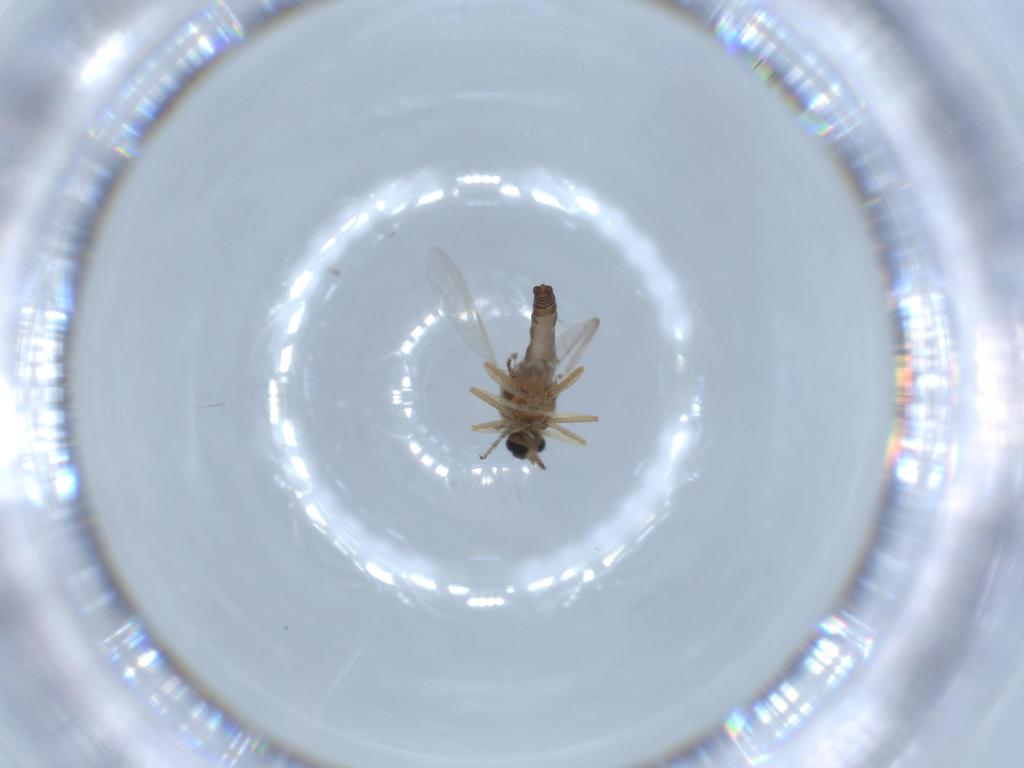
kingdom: Animalia
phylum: Arthropoda
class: Insecta
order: Diptera
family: Ceratopogonidae
